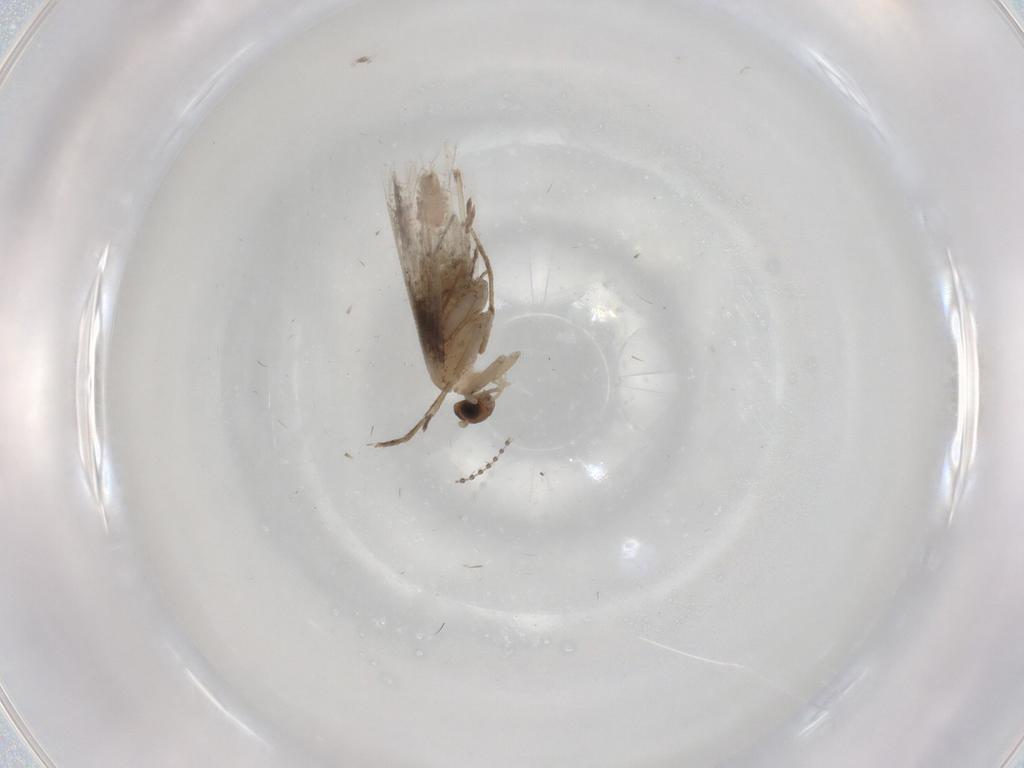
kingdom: Animalia
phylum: Arthropoda
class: Insecta
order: Lepidoptera
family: Tineidae
